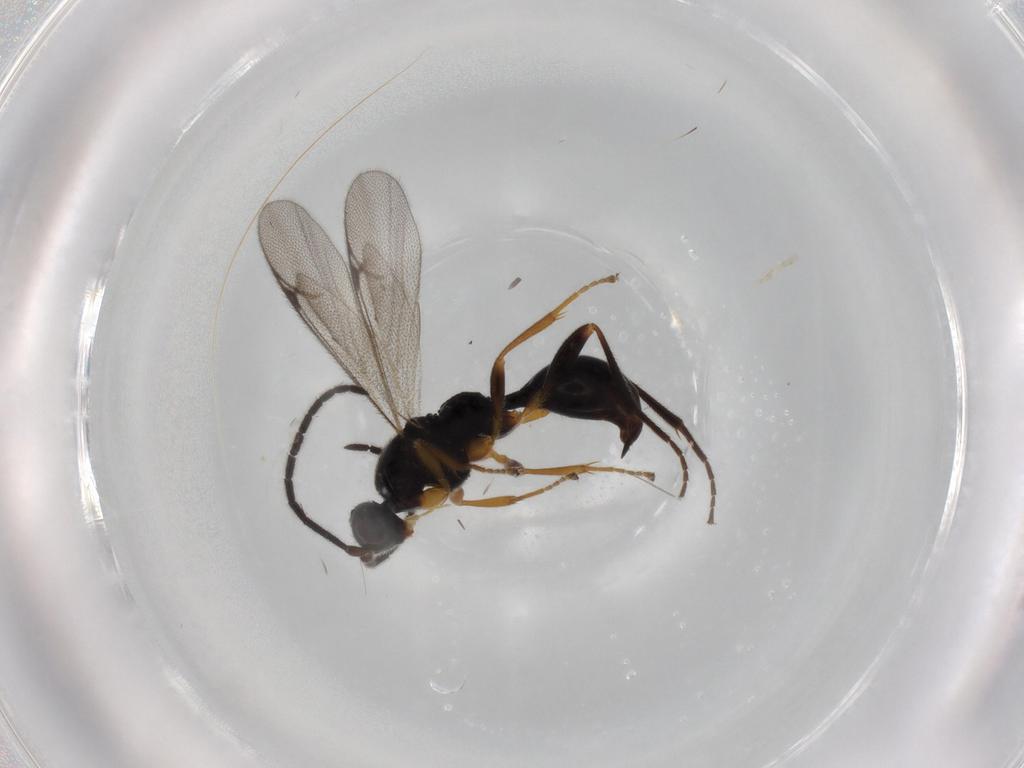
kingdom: Animalia
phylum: Arthropoda
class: Insecta
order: Hymenoptera
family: Proctotrupidae
